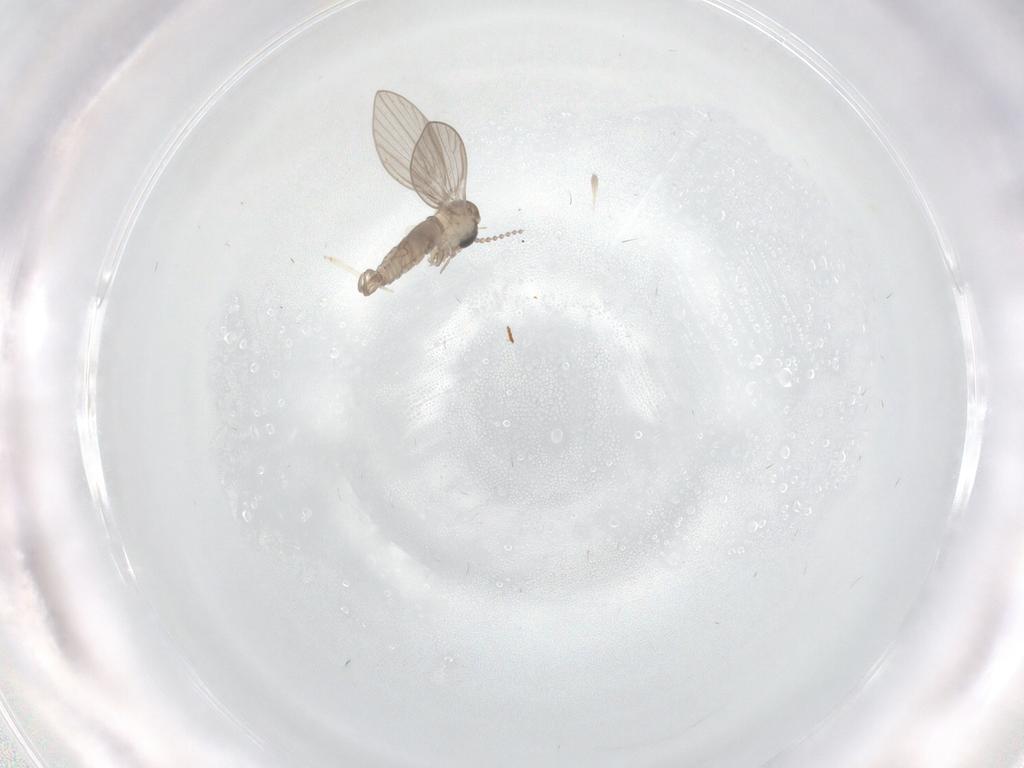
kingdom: Animalia
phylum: Arthropoda
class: Insecta
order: Diptera
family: Psychodidae
